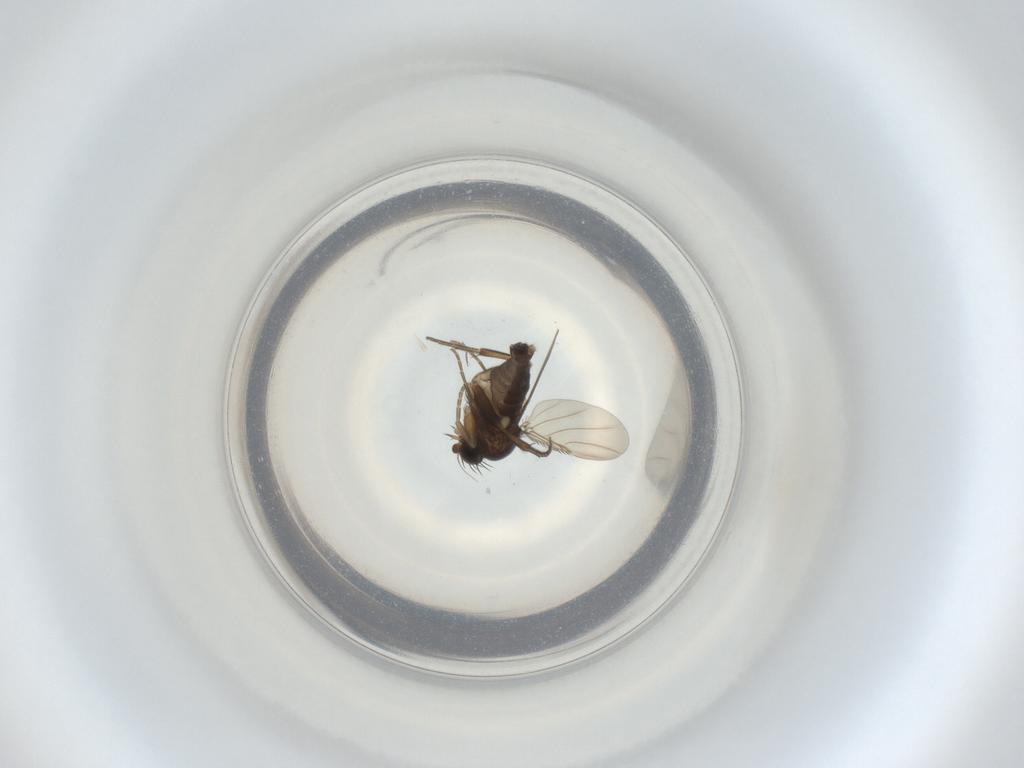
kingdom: Animalia
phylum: Arthropoda
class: Insecta
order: Diptera
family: Phoridae
